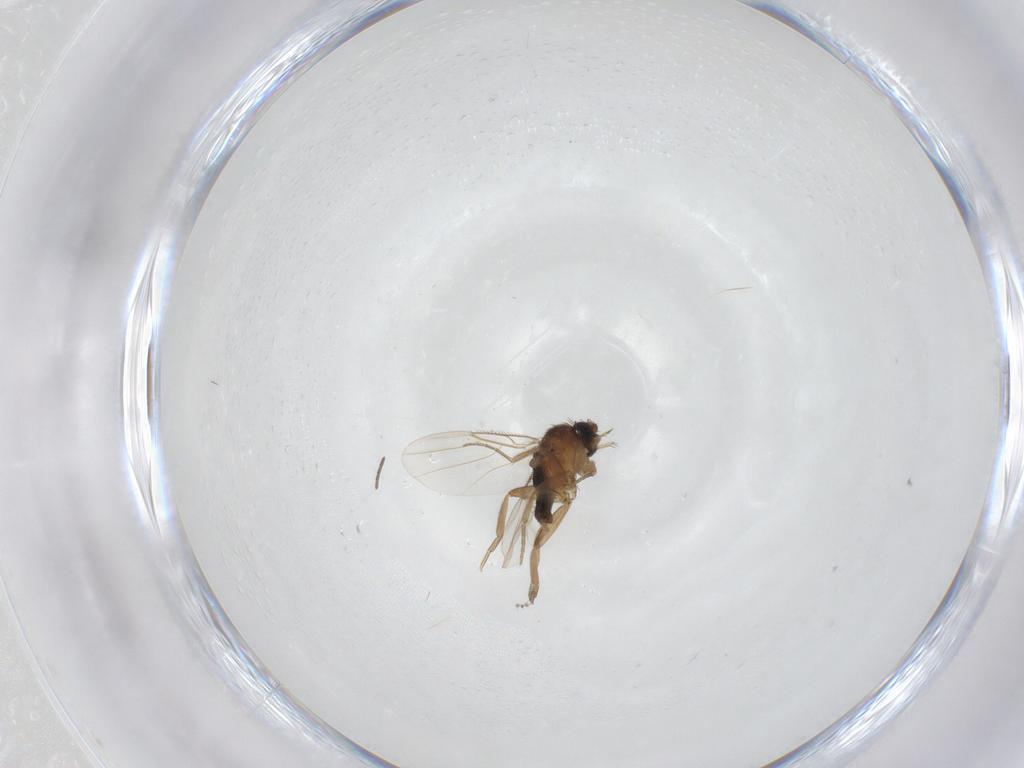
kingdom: Animalia
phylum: Arthropoda
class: Insecta
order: Diptera
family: Phoridae
